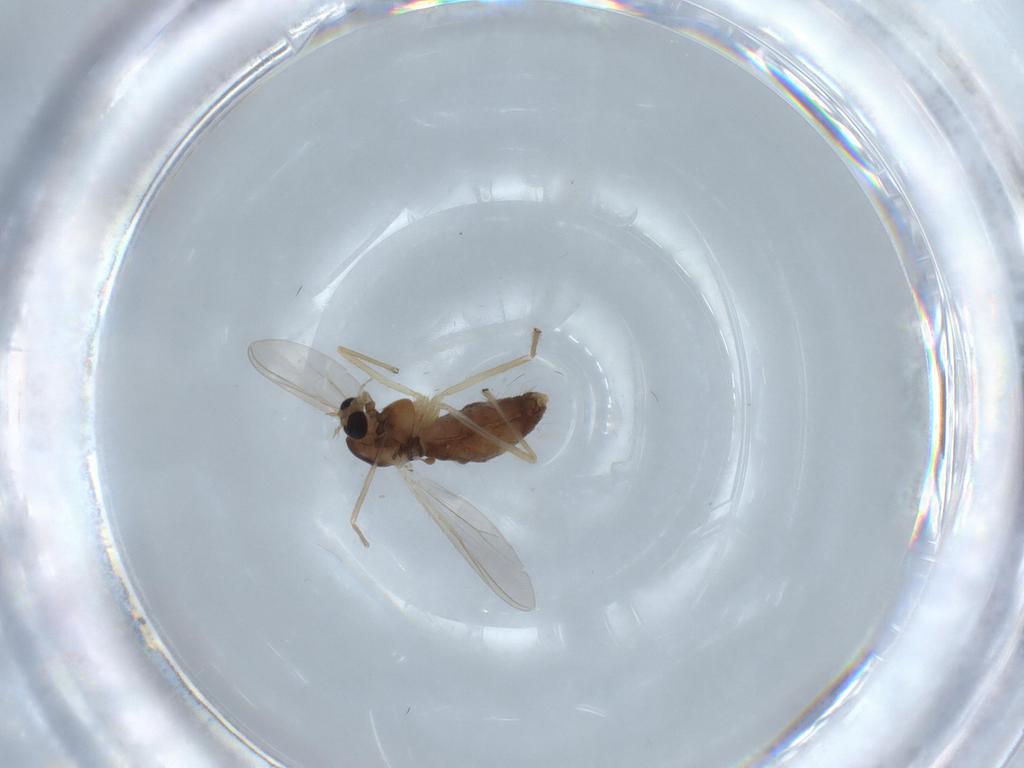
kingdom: Animalia
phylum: Arthropoda
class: Insecta
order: Diptera
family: Chironomidae
